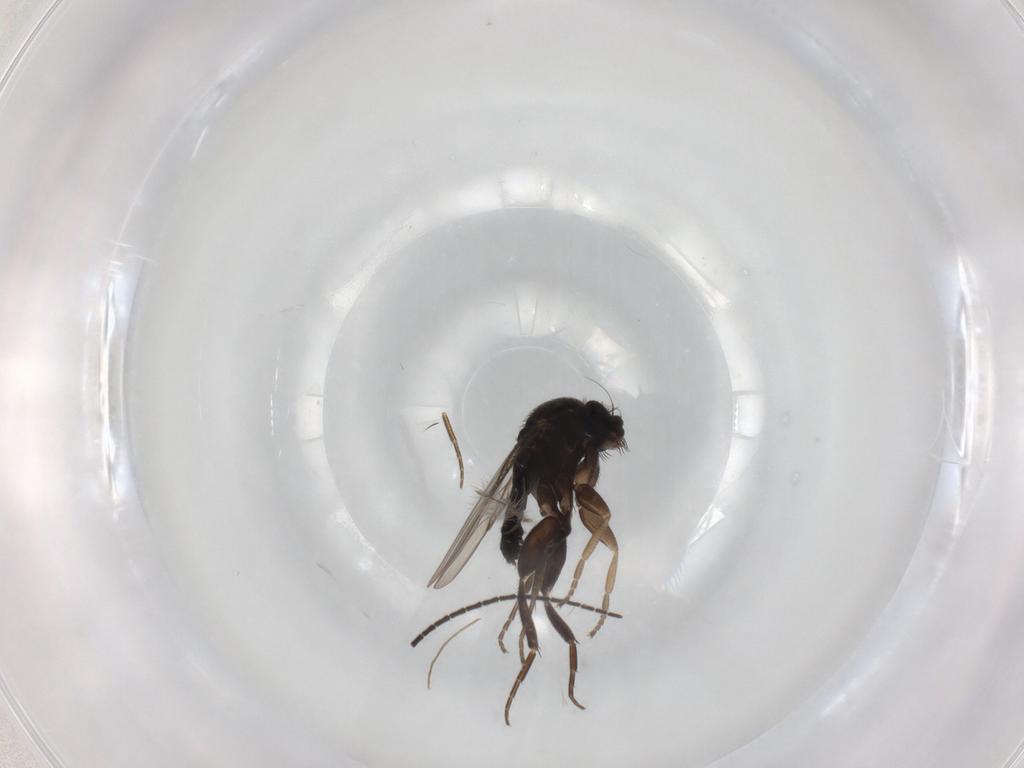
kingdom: Animalia
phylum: Arthropoda
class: Insecta
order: Diptera
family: Phoridae
